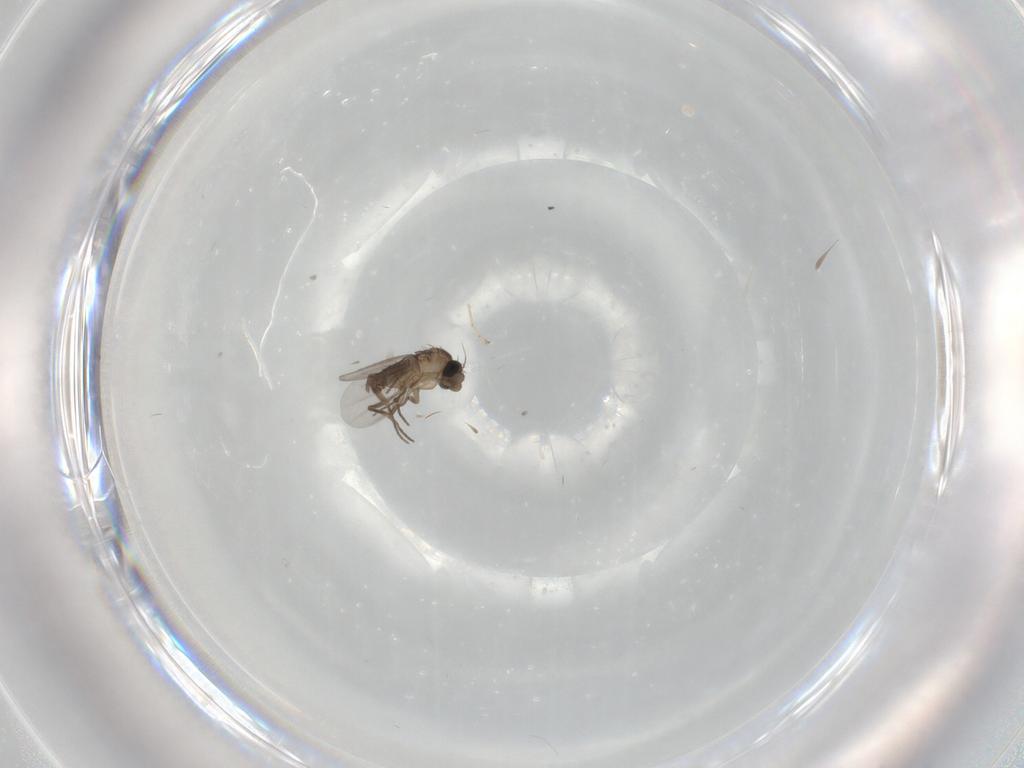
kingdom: Animalia
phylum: Arthropoda
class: Insecta
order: Diptera
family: Cecidomyiidae
